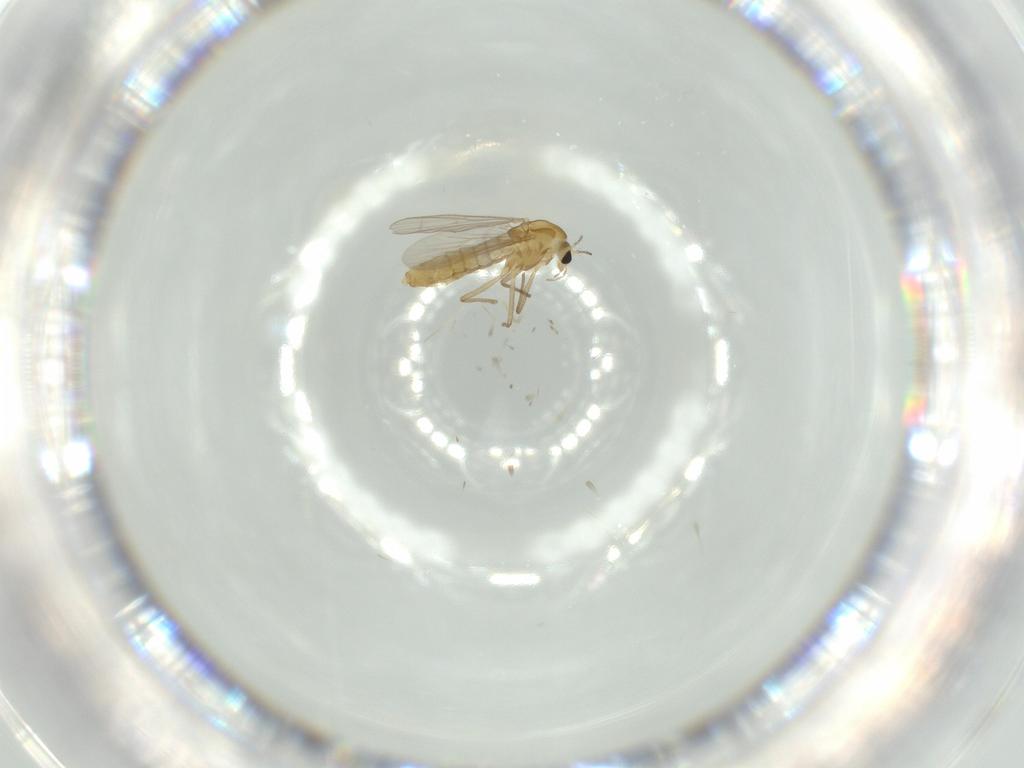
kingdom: Animalia
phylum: Arthropoda
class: Insecta
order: Diptera
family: Chironomidae
